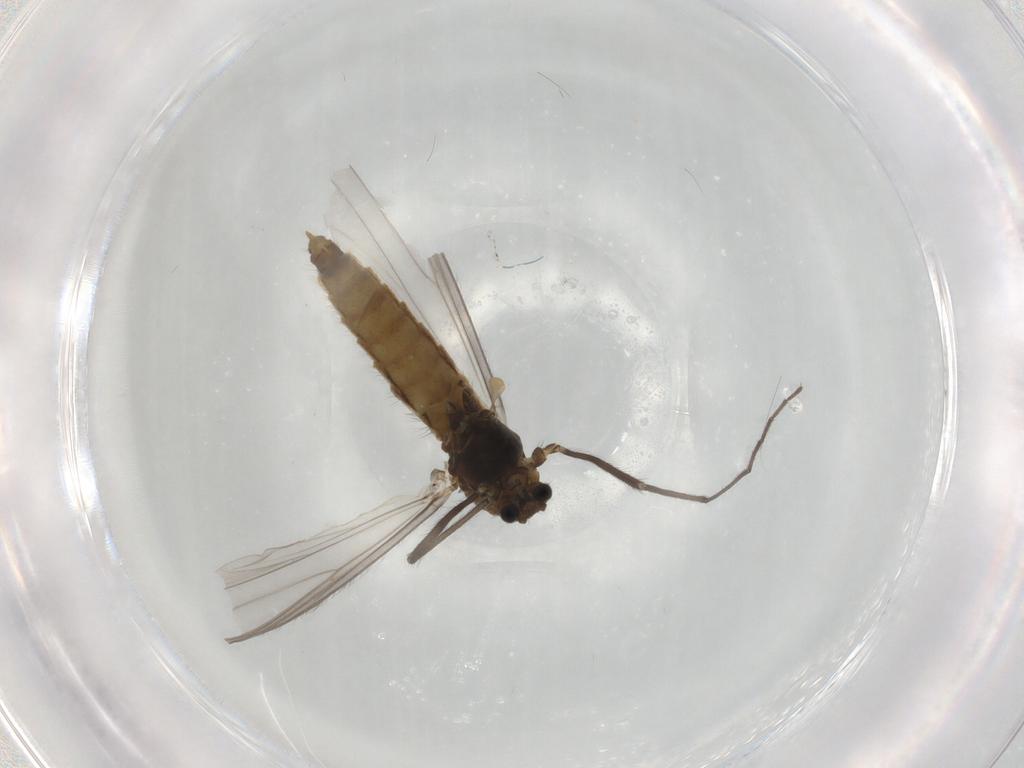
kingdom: Animalia
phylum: Arthropoda
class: Insecta
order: Diptera
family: Chironomidae
